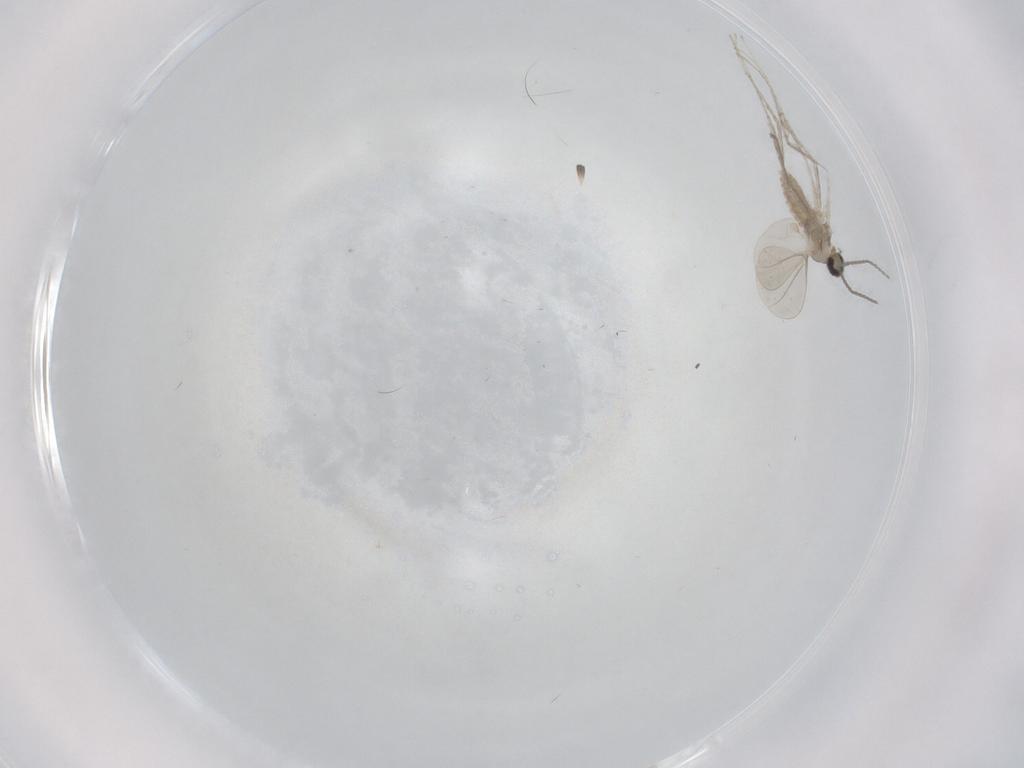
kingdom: Animalia
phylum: Arthropoda
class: Insecta
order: Diptera
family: Cecidomyiidae
